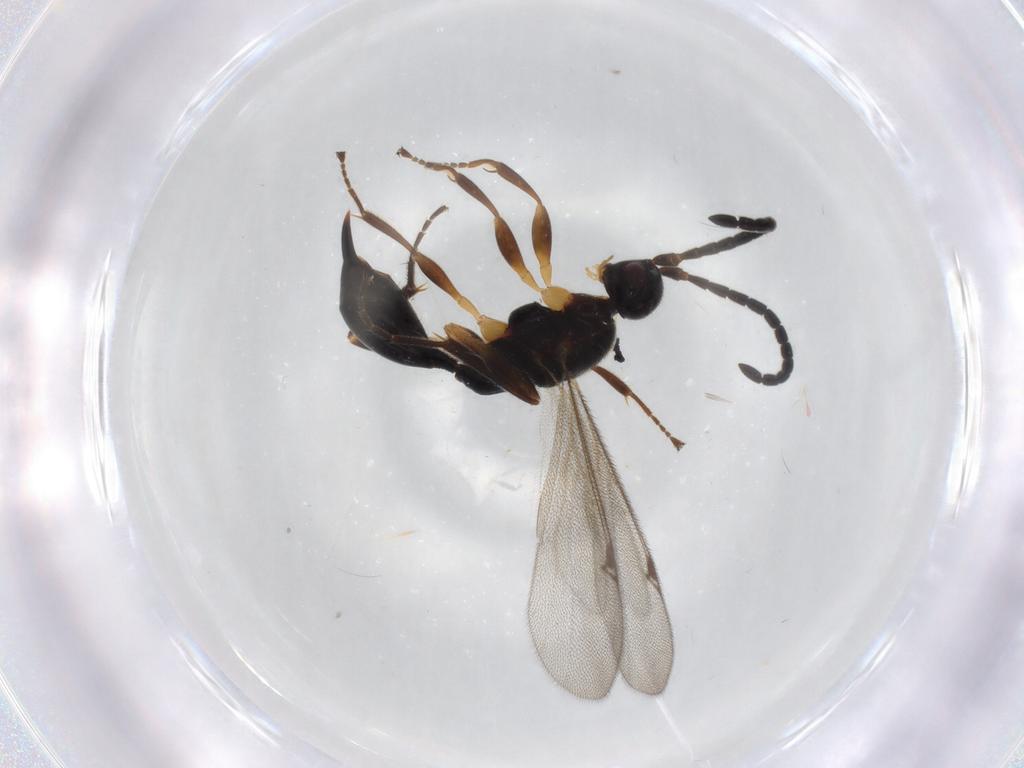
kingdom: Animalia
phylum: Arthropoda
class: Insecta
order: Hymenoptera
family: Proctotrupidae
